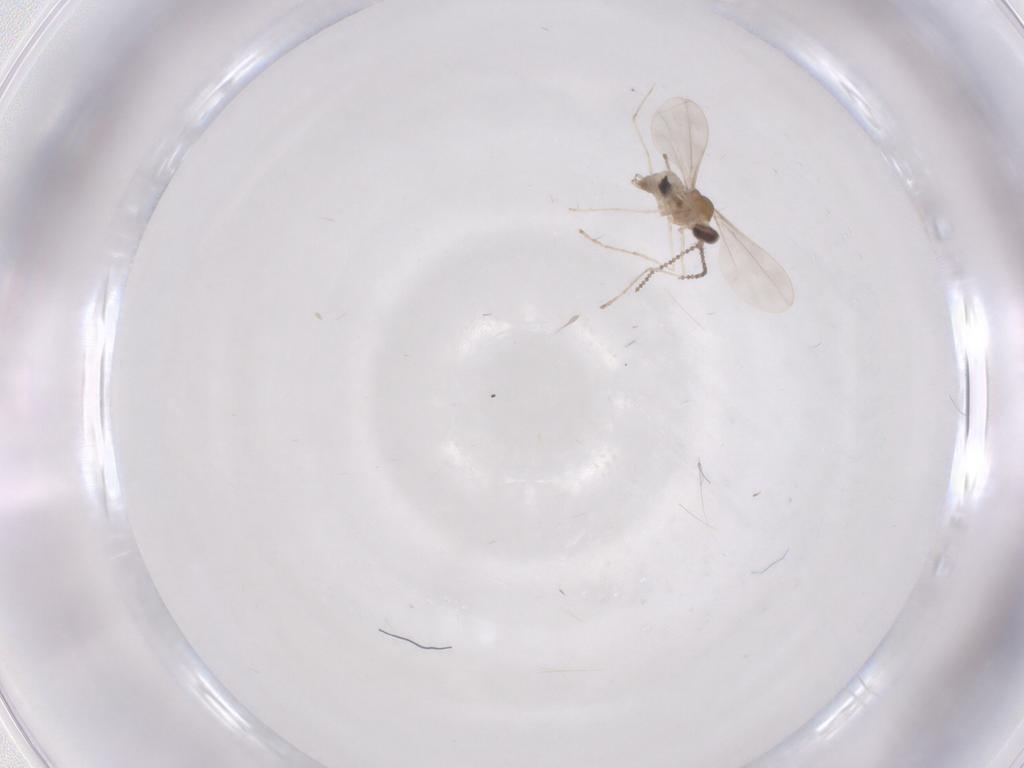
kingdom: Animalia
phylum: Arthropoda
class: Insecta
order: Diptera
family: Cecidomyiidae
